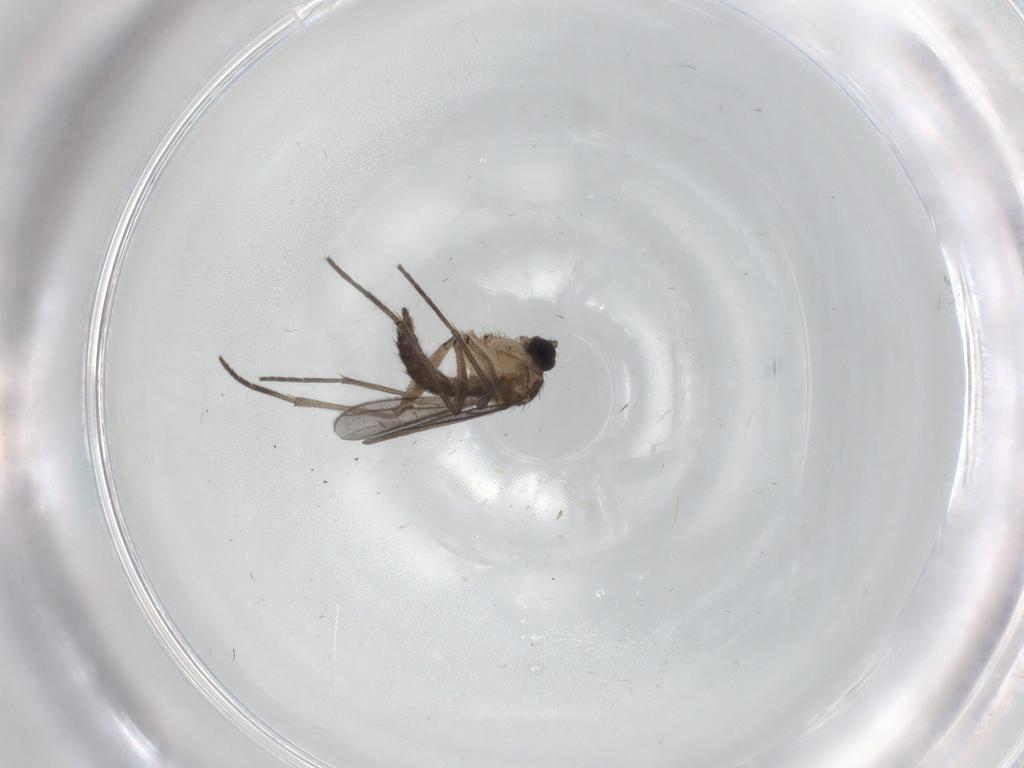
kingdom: Animalia
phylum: Arthropoda
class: Insecta
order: Diptera
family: Sciaridae
